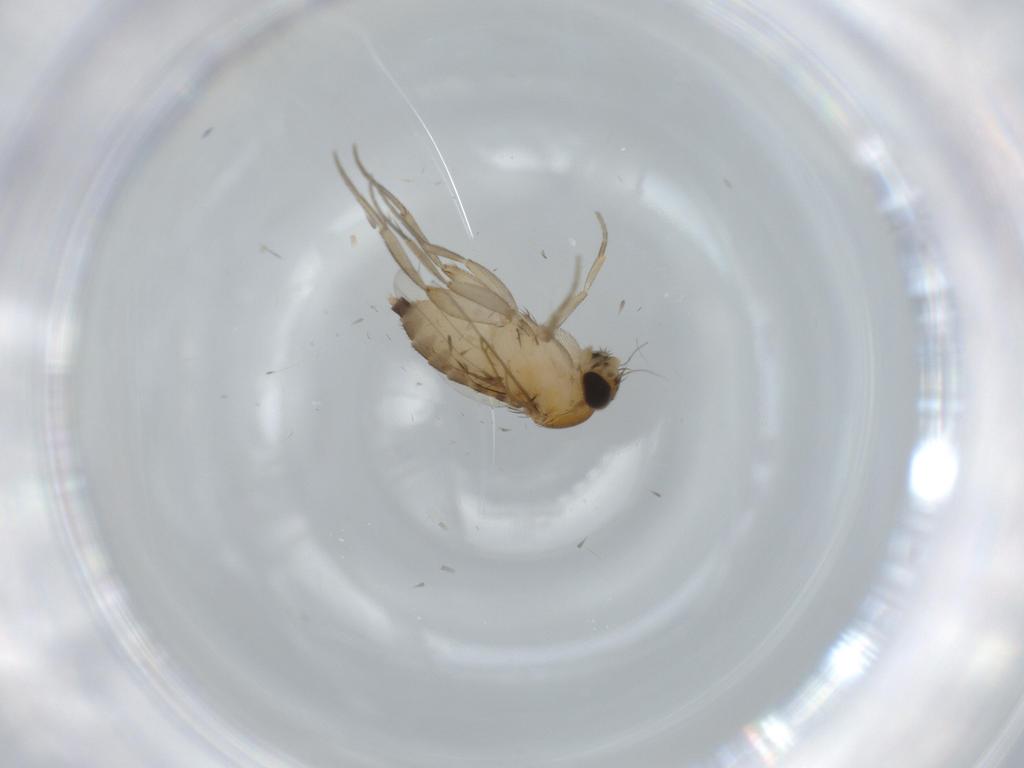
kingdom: Animalia
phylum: Arthropoda
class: Insecta
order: Diptera
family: Phoridae
